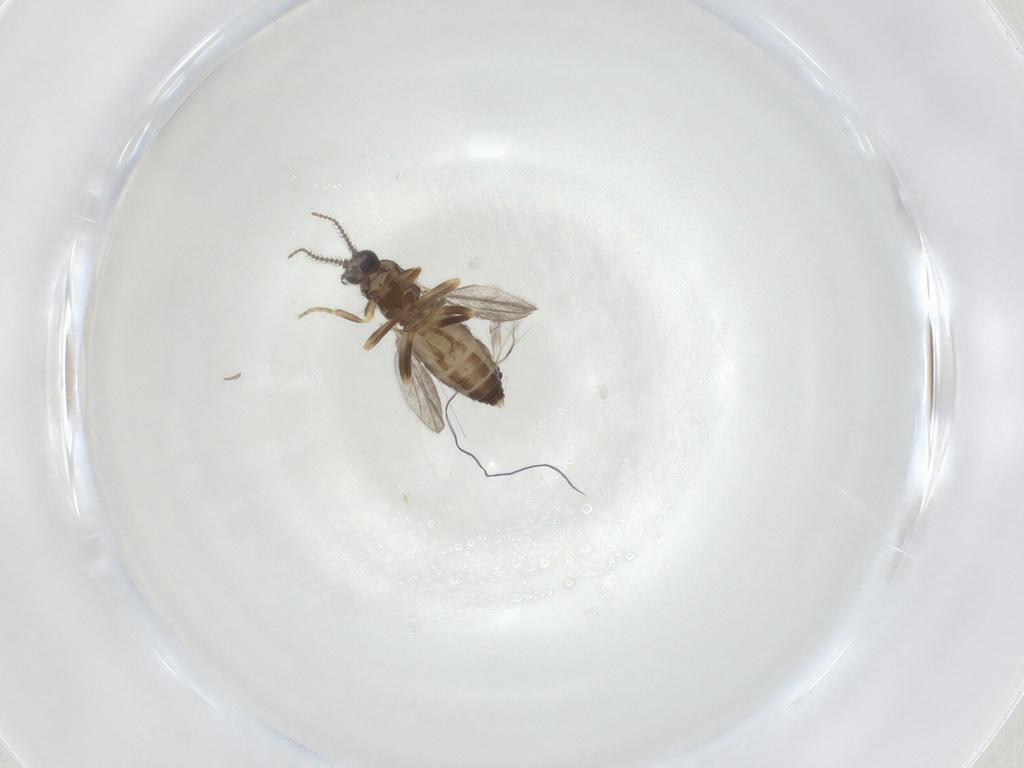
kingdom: Animalia
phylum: Arthropoda
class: Insecta
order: Diptera
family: Ceratopogonidae
